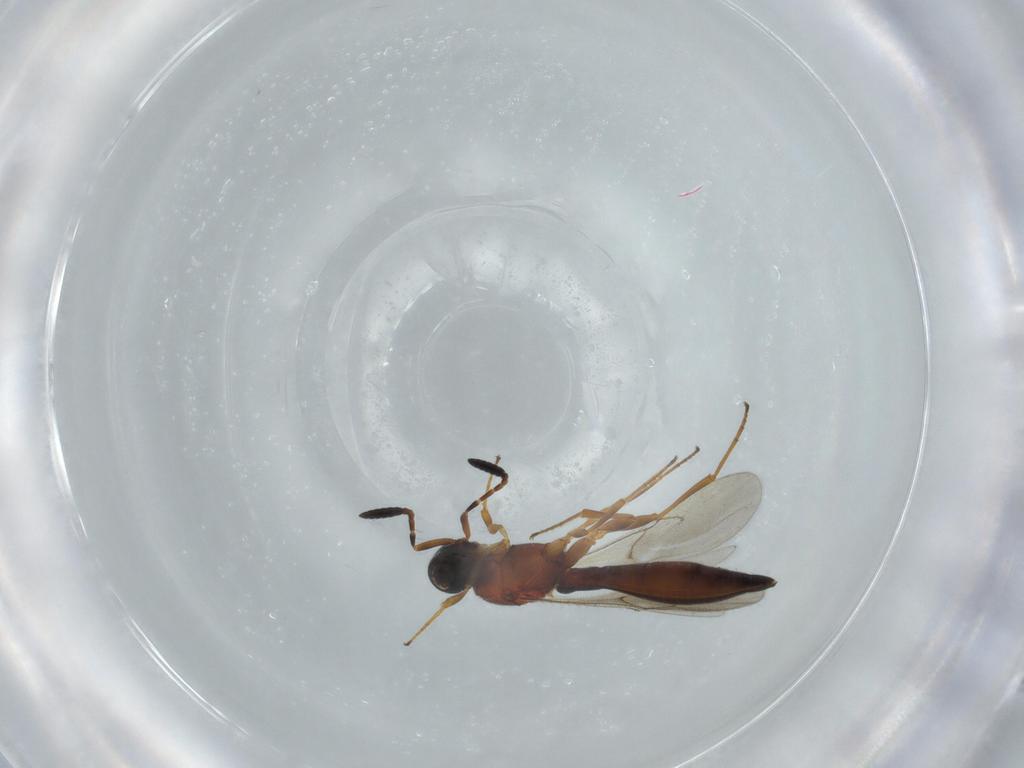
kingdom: Animalia
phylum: Arthropoda
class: Insecta
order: Hymenoptera
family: Scelionidae
